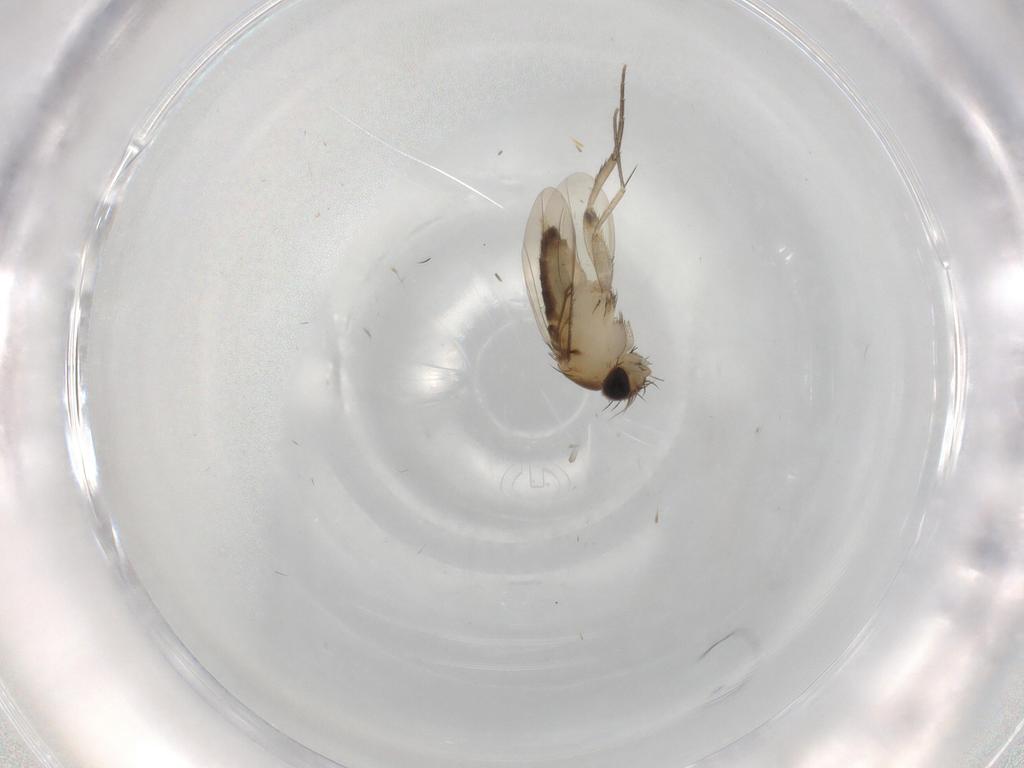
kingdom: Animalia
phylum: Arthropoda
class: Insecta
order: Diptera
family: Phoridae
